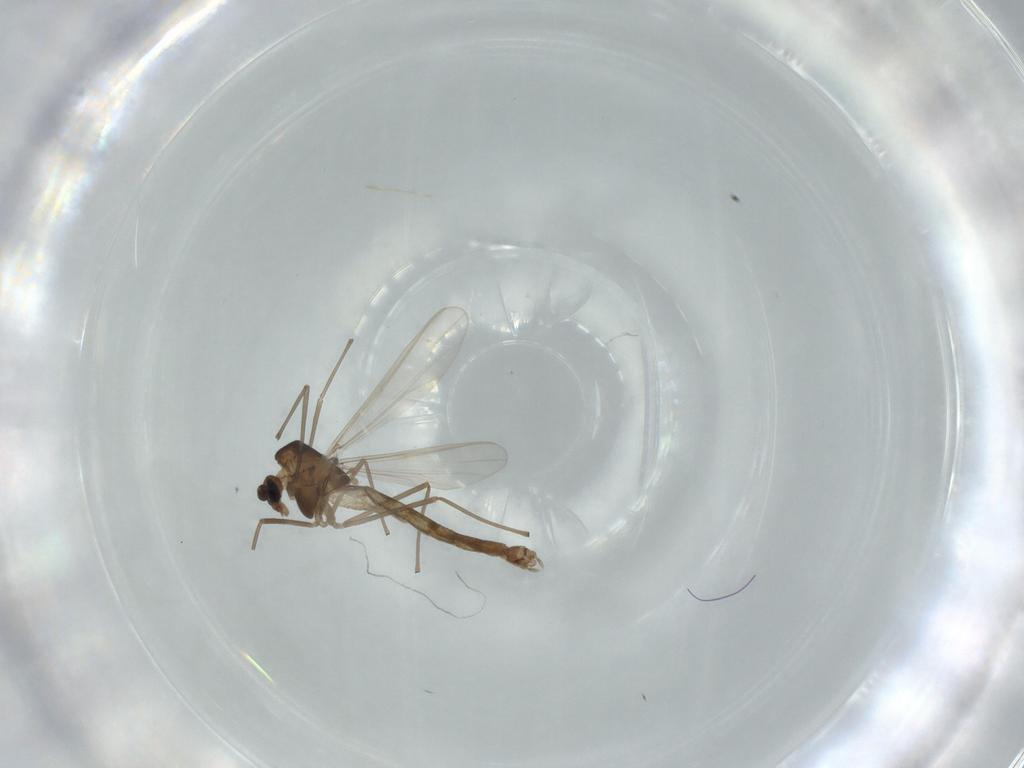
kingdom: Animalia
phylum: Arthropoda
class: Insecta
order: Diptera
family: Chironomidae
